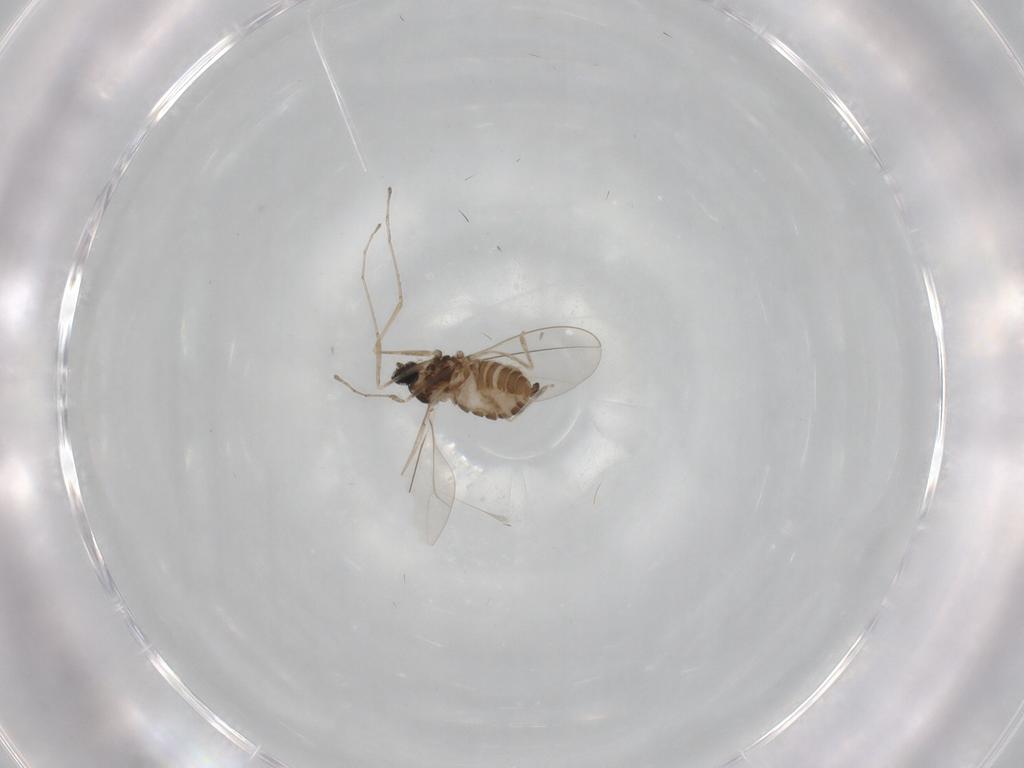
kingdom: Animalia
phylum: Arthropoda
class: Insecta
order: Diptera
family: Cecidomyiidae
